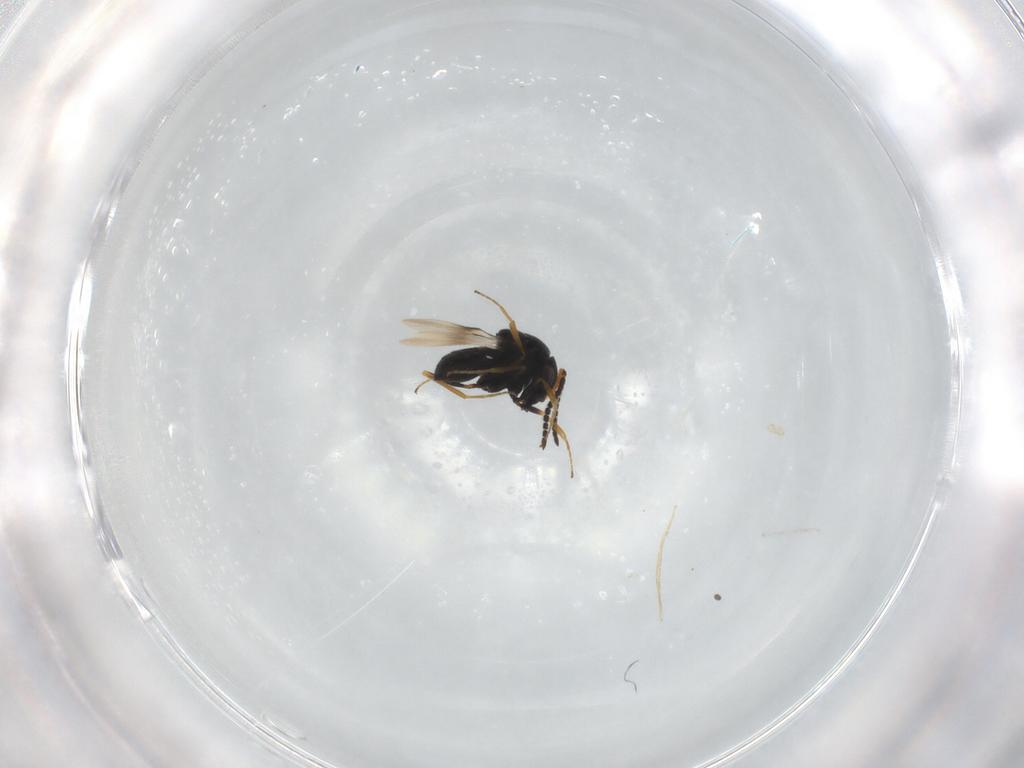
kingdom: Animalia
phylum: Arthropoda
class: Insecta
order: Hymenoptera
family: Scelionidae
